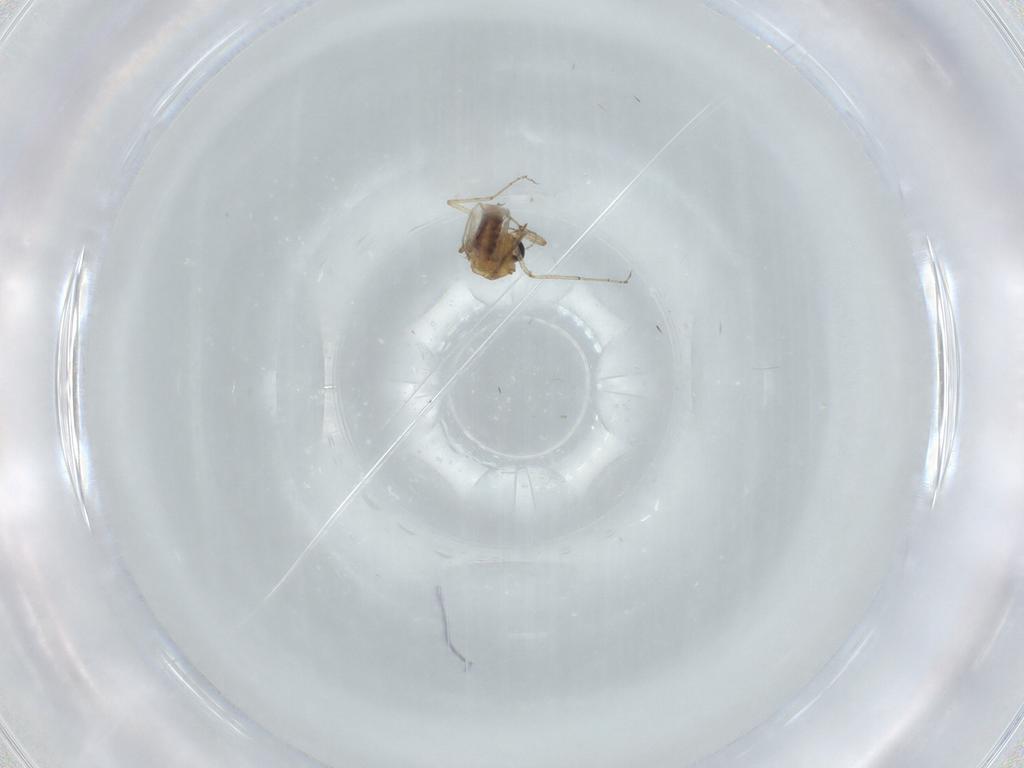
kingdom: Animalia
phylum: Arthropoda
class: Insecta
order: Diptera
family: Ceratopogonidae
